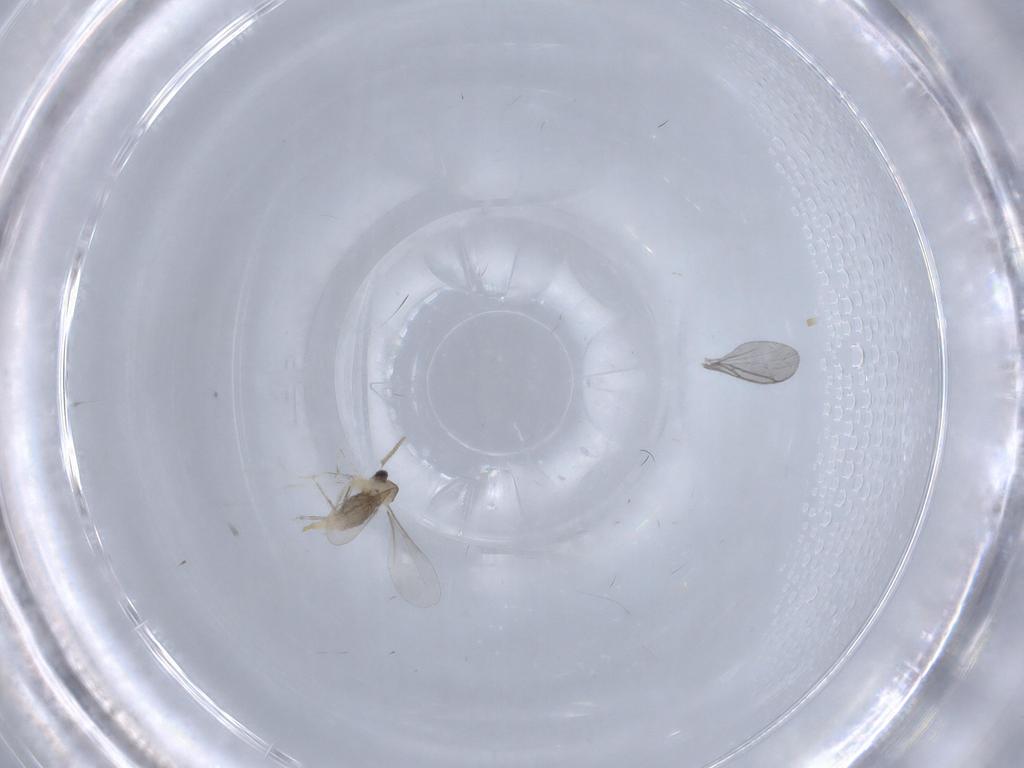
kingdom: Animalia
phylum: Arthropoda
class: Insecta
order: Diptera
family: Chironomidae
